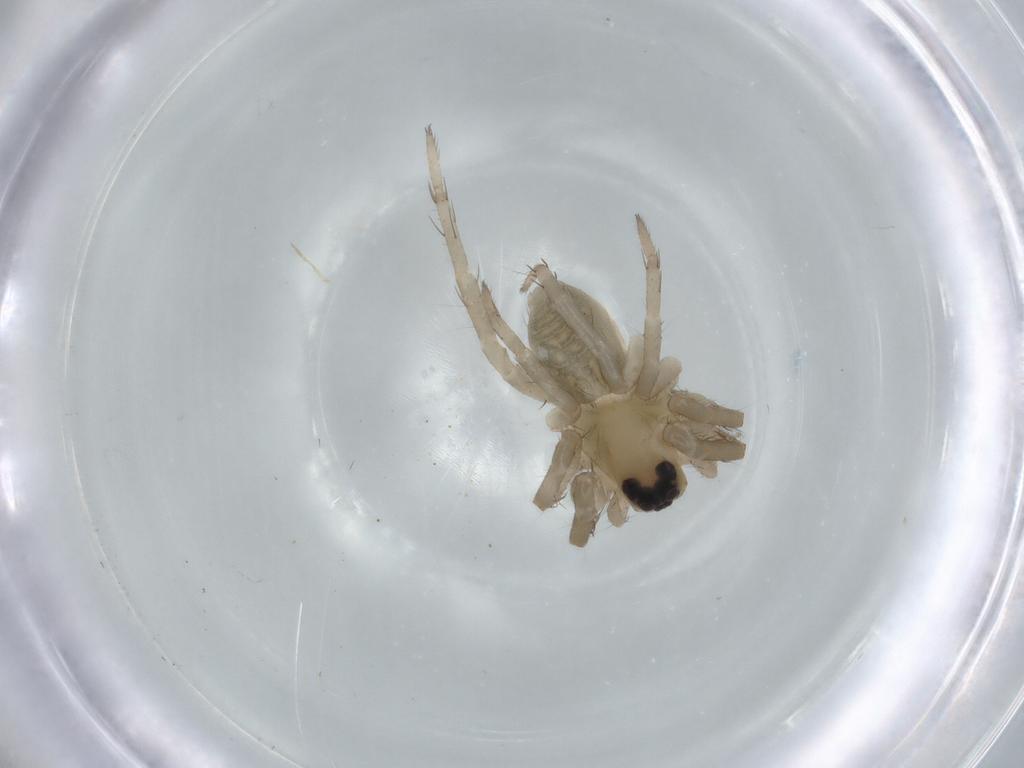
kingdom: Animalia
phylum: Arthropoda
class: Arachnida
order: Araneae
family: Lycosidae
